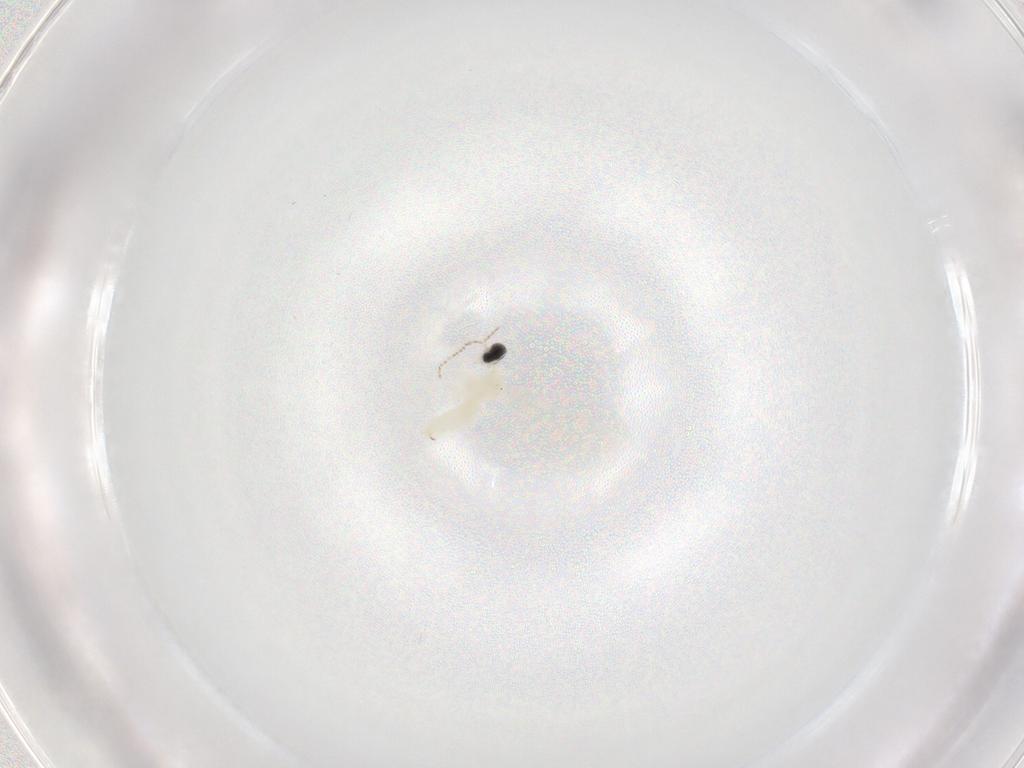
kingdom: Animalia
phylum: Arthropoda
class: Insecta
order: Diptera
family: Cecidomyiidae
